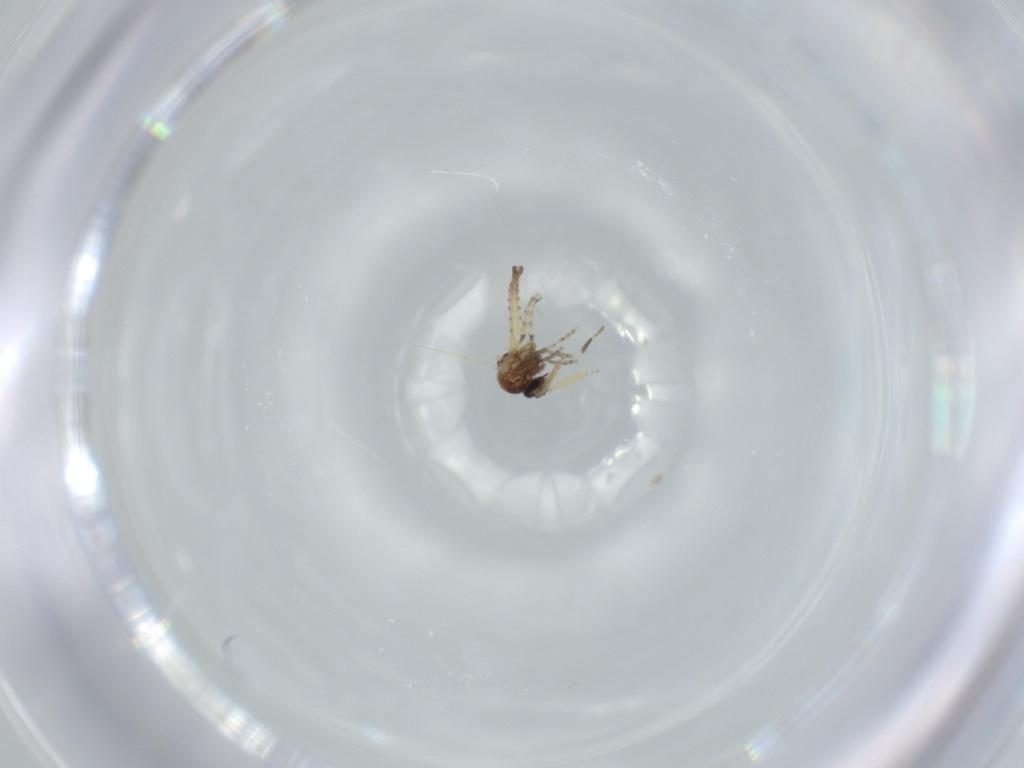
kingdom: Animalia
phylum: Arthropoda
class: Insecta
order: Diptera
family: Ceratopogonidae
